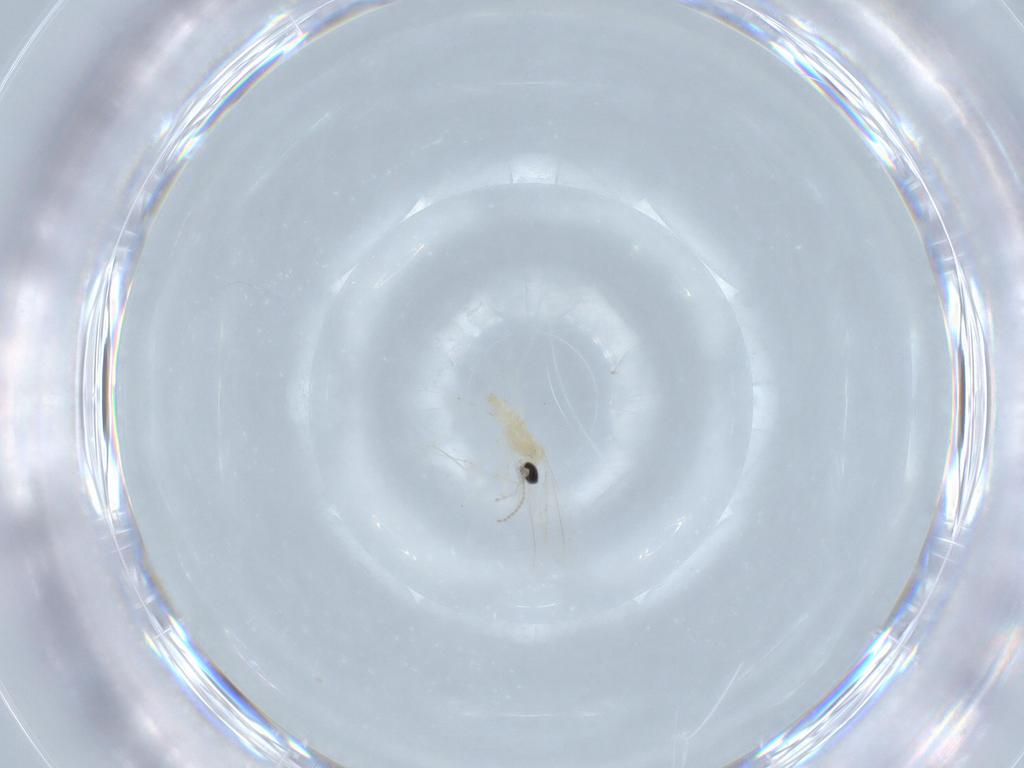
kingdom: Animalia
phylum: Arthropoda
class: Insecta
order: Diptera
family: Cecidomyiidae
